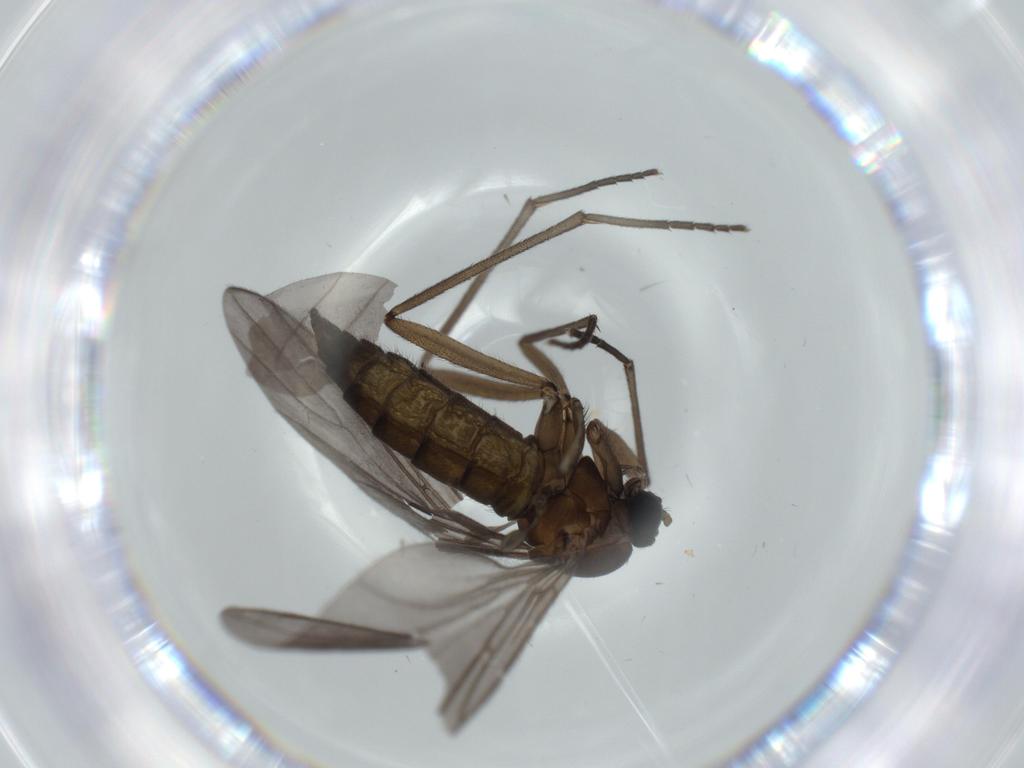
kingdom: Animalia
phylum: Arthropoda
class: Insecta
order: Diptera
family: Sciaridae
